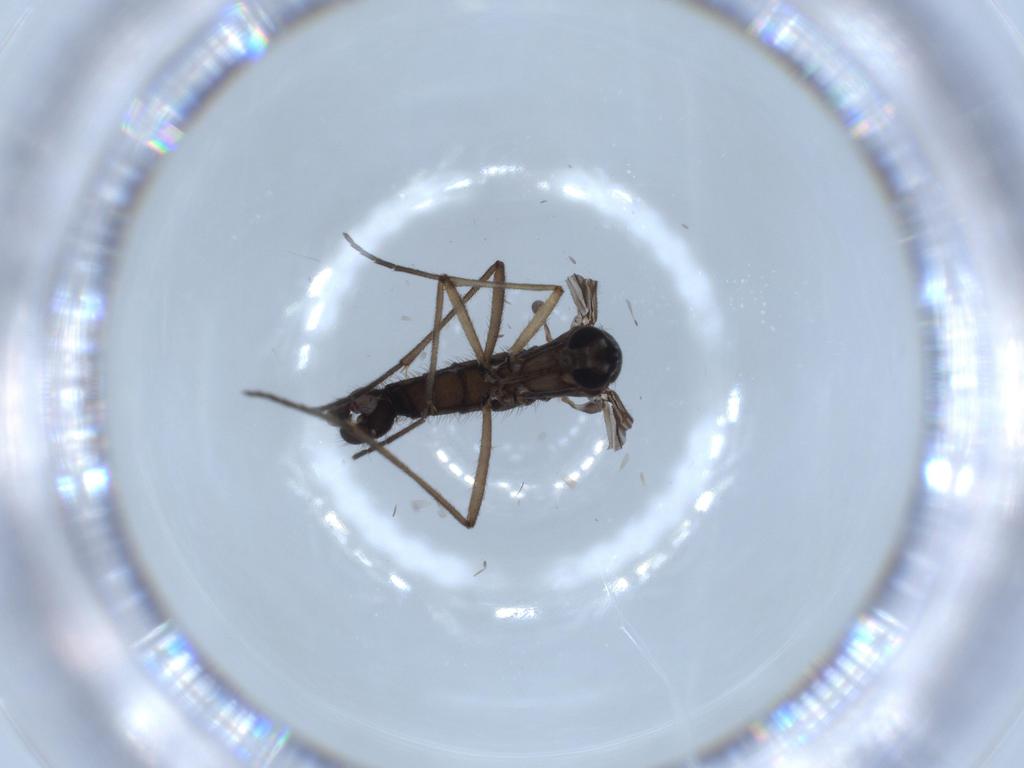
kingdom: Animalia
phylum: Arthropoda
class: Insecta
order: Diptera
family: Sciaridae
